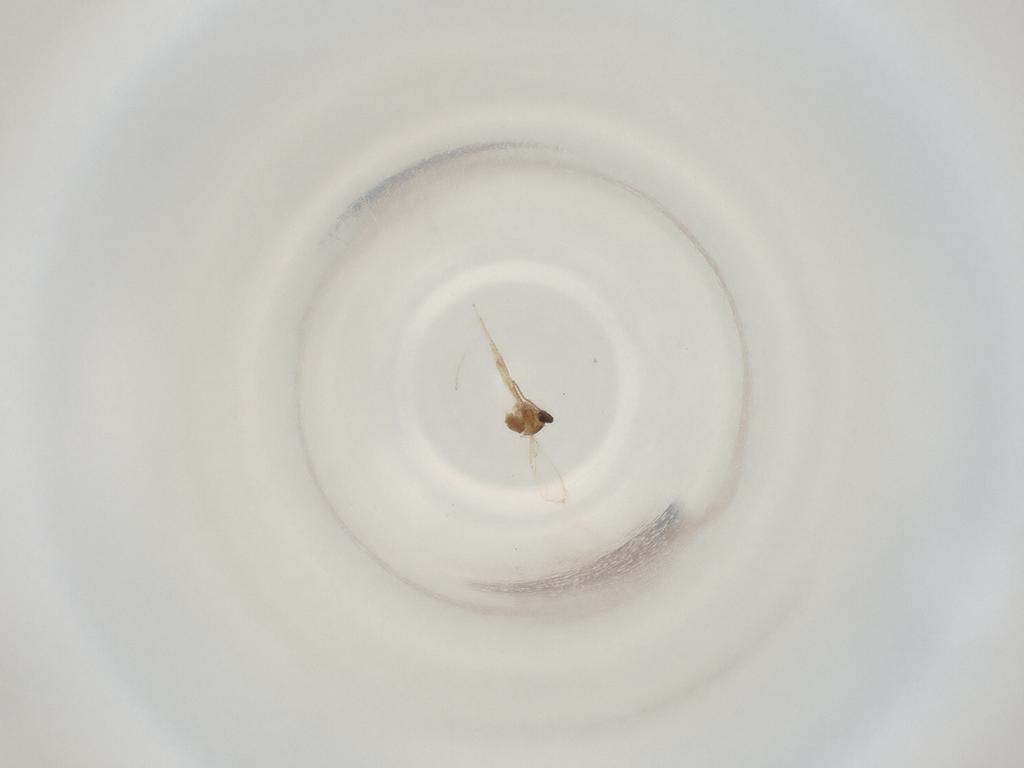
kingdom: Animalia
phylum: Arthropoda
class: Insecta
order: Diptera
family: Cecidomyiidae
